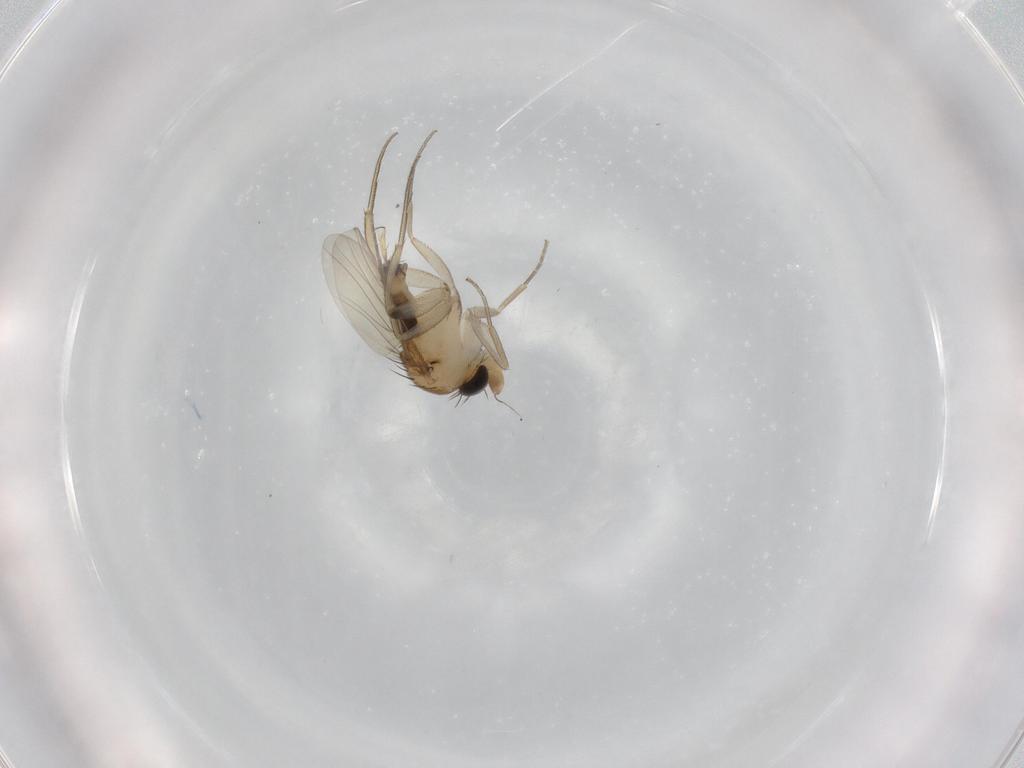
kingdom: Animalia
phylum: Arthropoda
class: Insecta
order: Diptera
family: Phoridae
